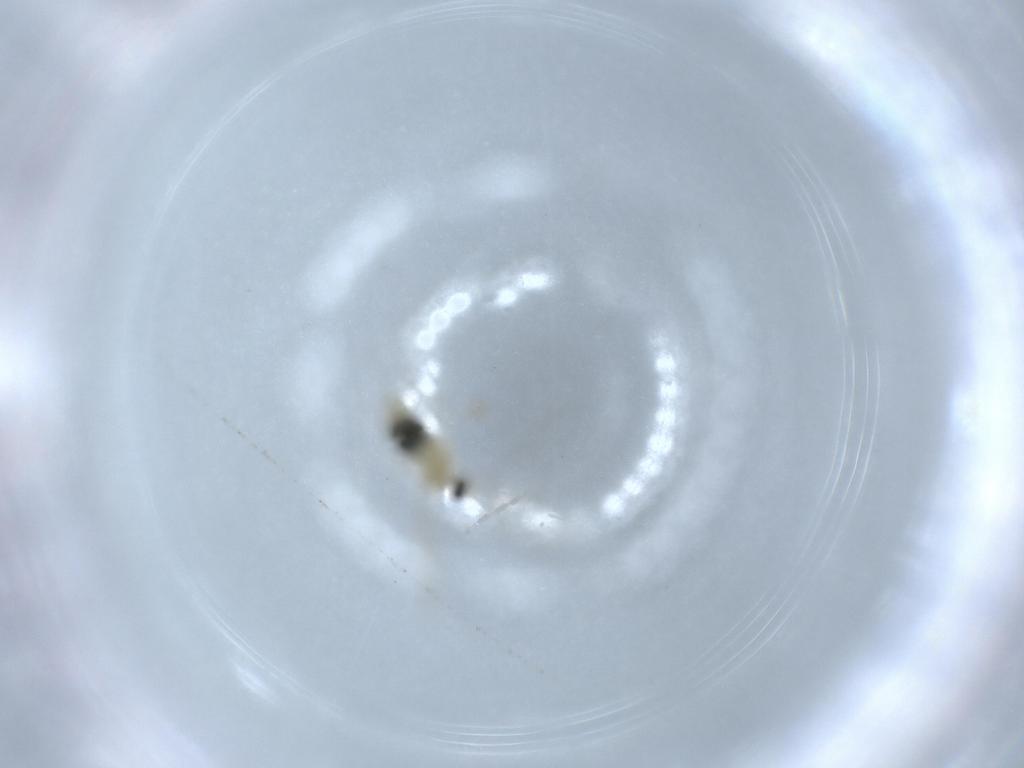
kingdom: Animalia
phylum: Arthropoda
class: Insecta
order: Diptera
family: Cecidomyiidae
